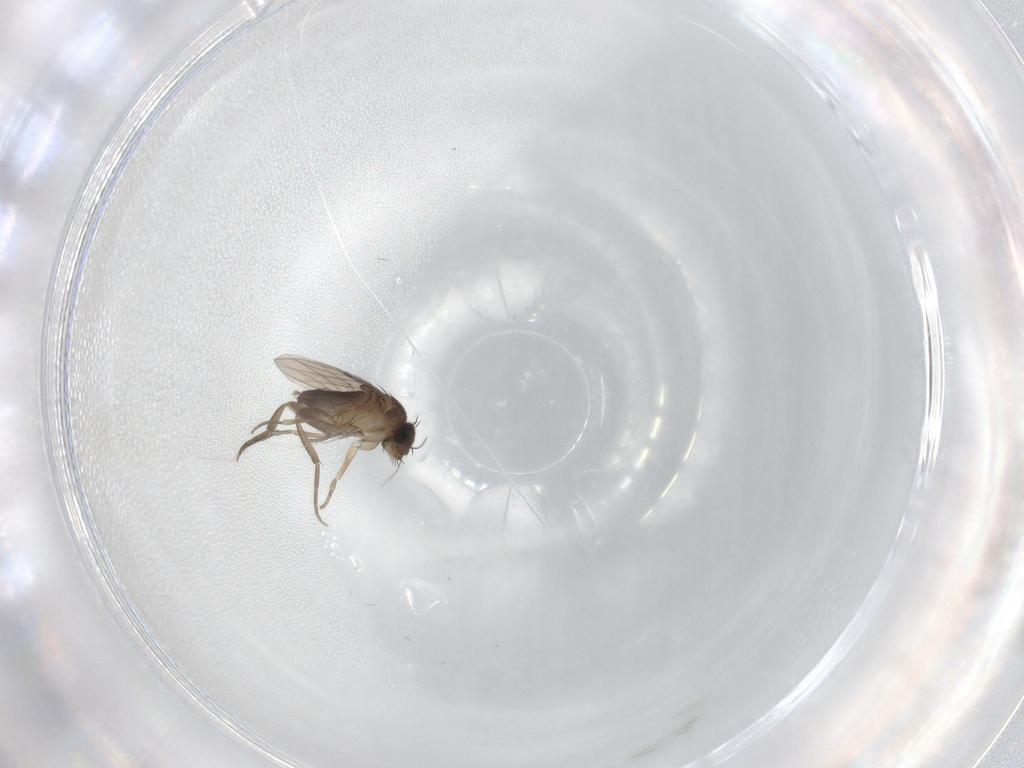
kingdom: Animalia
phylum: Arthropoda
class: Insecta
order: Diptera
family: Phoridae
